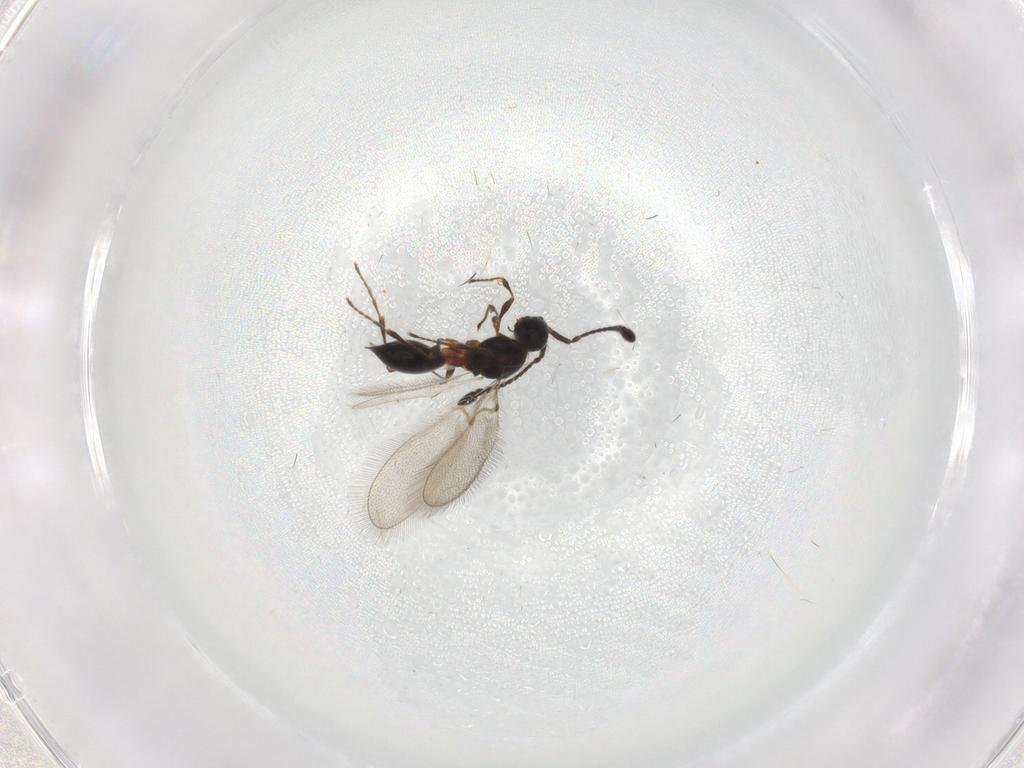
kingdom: Animalia
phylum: Arthropoda
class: Insecta
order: Hymenoptera
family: Diapriidae
